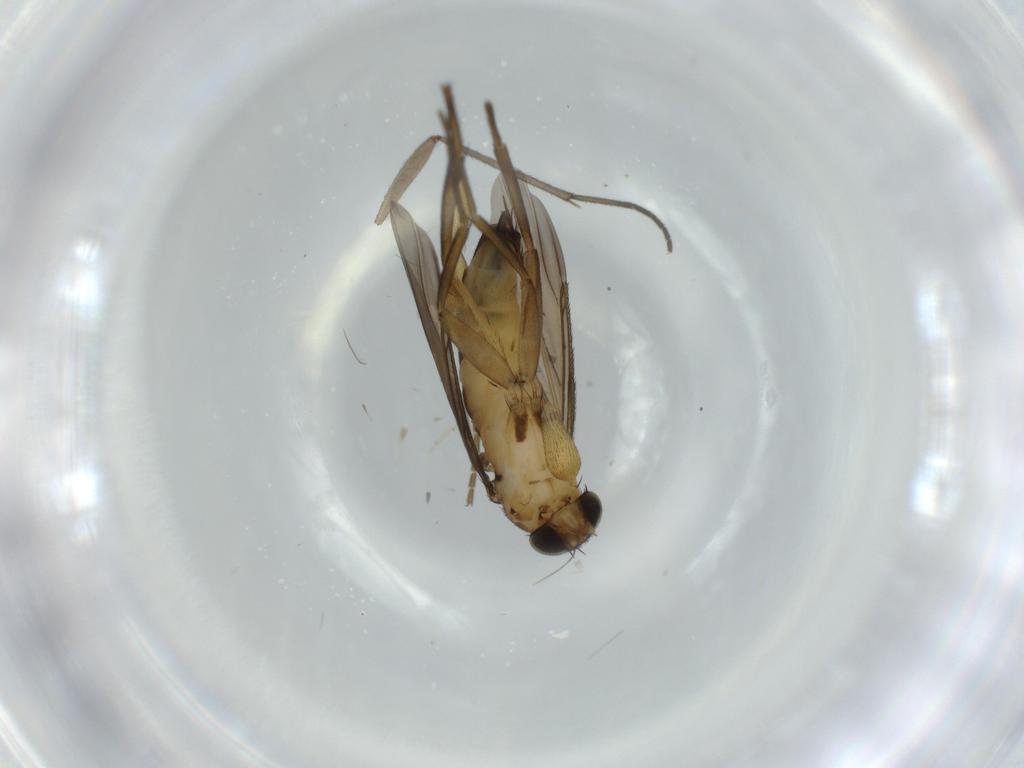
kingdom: Animalia
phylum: Arthropoda
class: Insecta
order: Diptera
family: Phoridae
